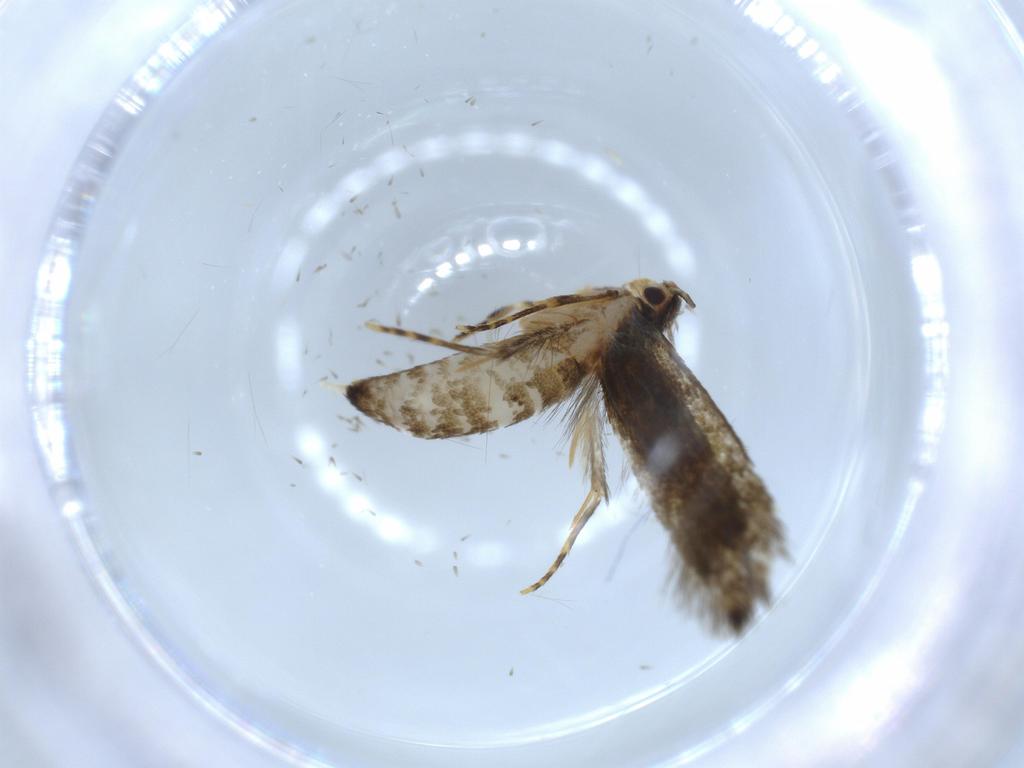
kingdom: Animalia
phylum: Arthropoda
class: Insecta
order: Lepidoptera
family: Tineidae
